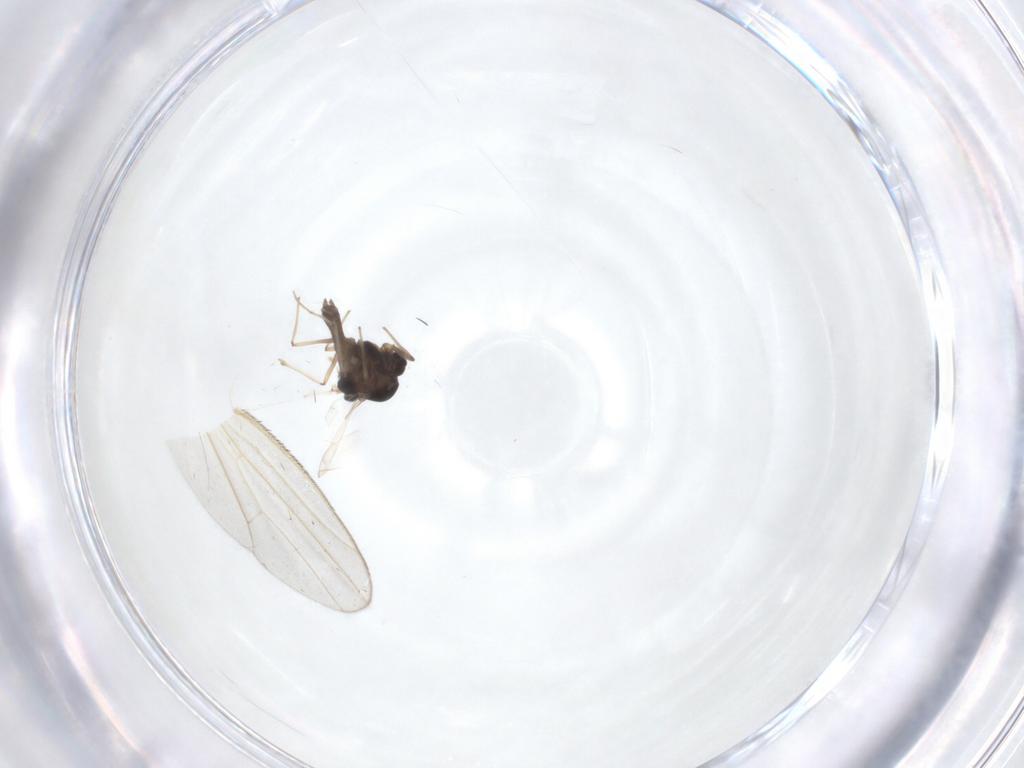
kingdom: Animalia
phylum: Arthropoda
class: Insecta
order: Diptera
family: Chironomidae
